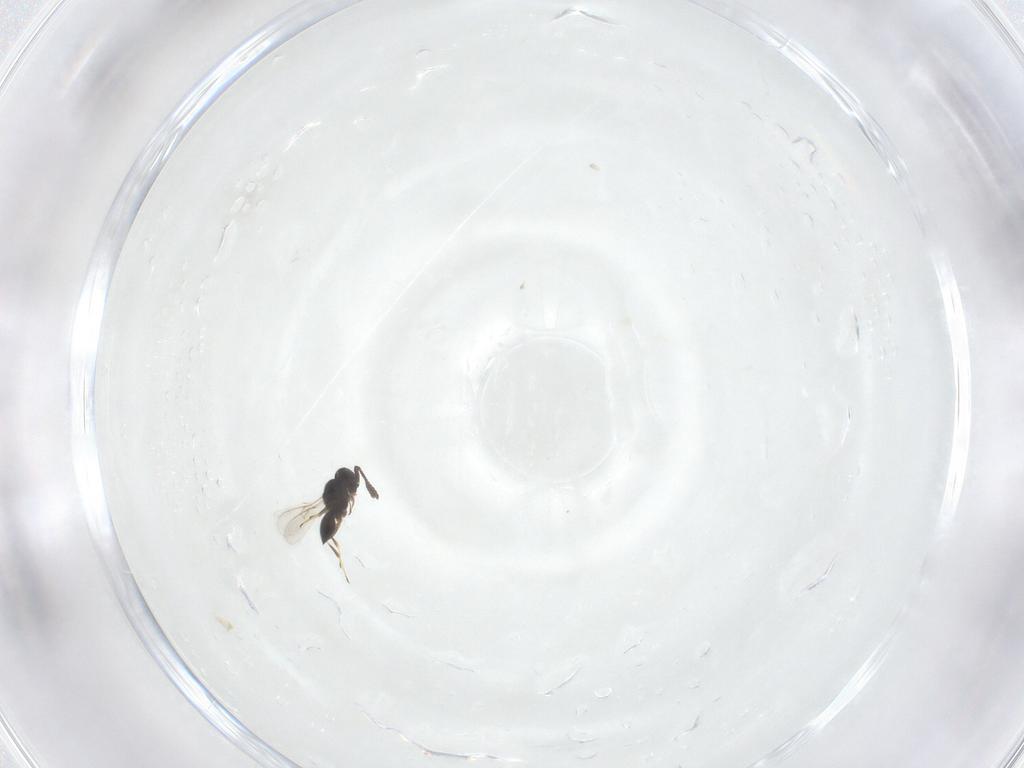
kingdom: Animalia
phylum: Arthropoda
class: Insecta
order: Hymenoptera
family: Scelionidae
